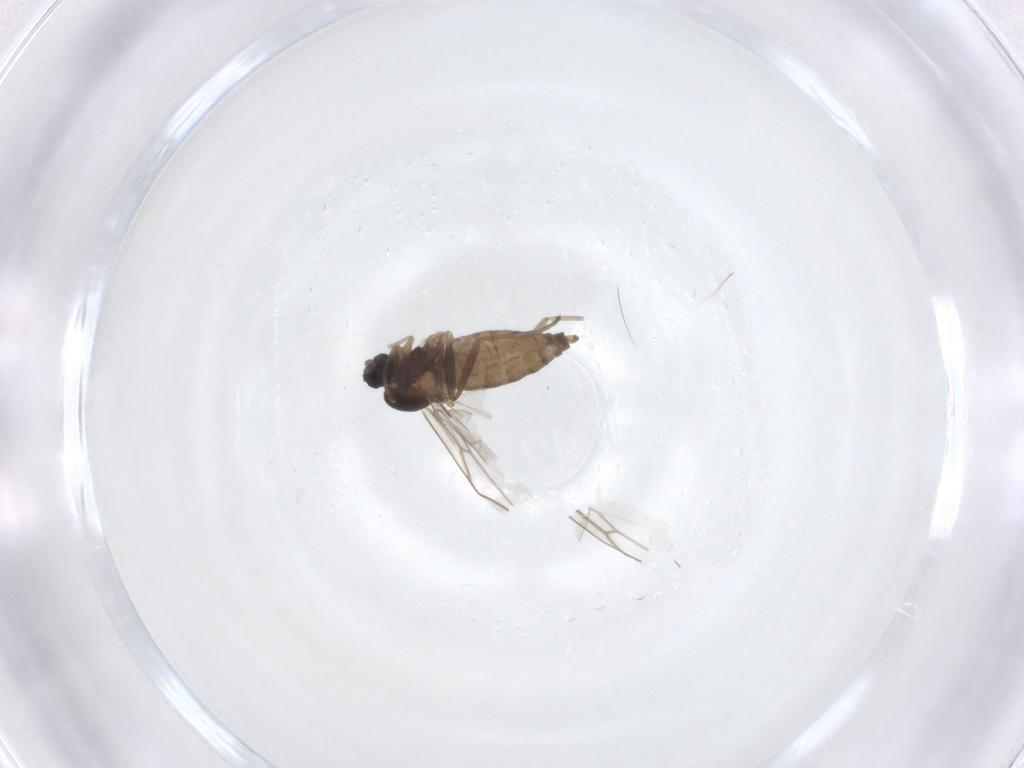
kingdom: Animalia
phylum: Arthropoda
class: Insecta
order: Diptera
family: Cecidomyiidae
